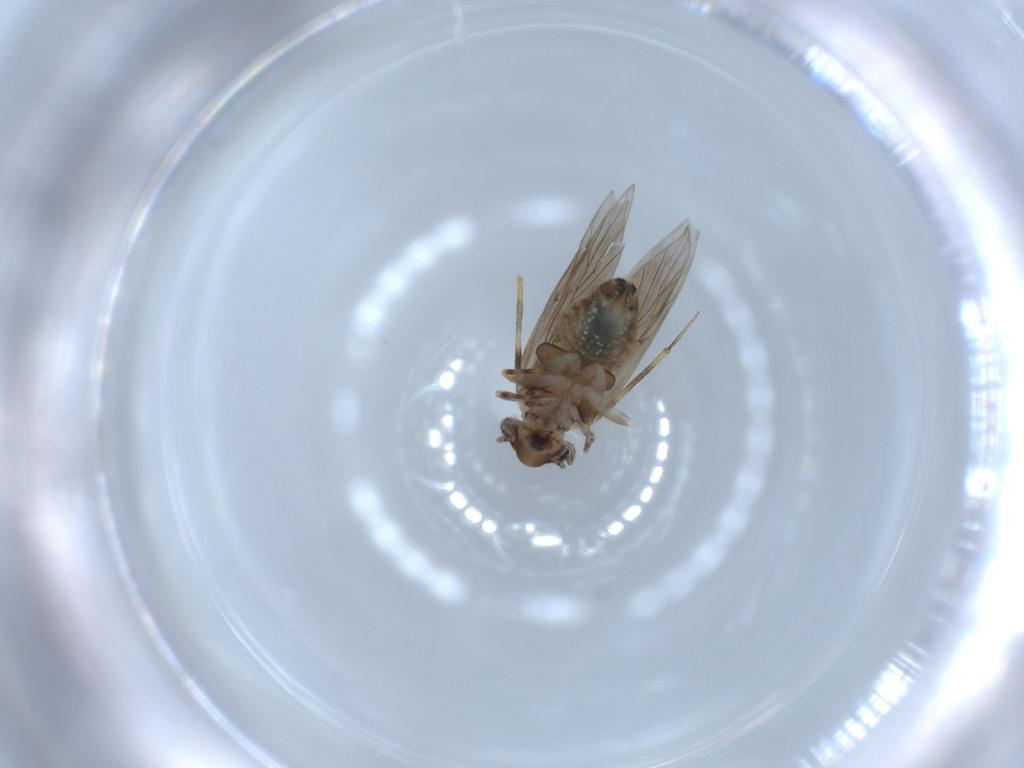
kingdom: Animalia
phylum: Arthropoda
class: Insecta
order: Psocodea
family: Lepidopsocidae
